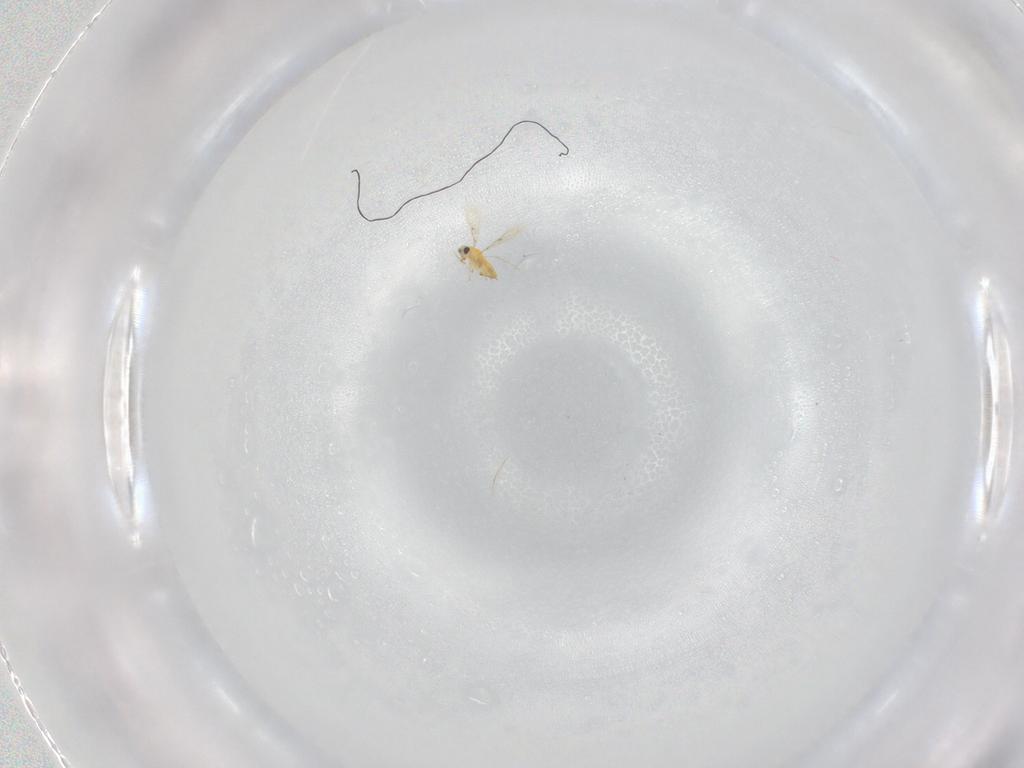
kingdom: Animalia
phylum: Arthropoda
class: Insecta
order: Hymenoptera
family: Trichogrammatidae
